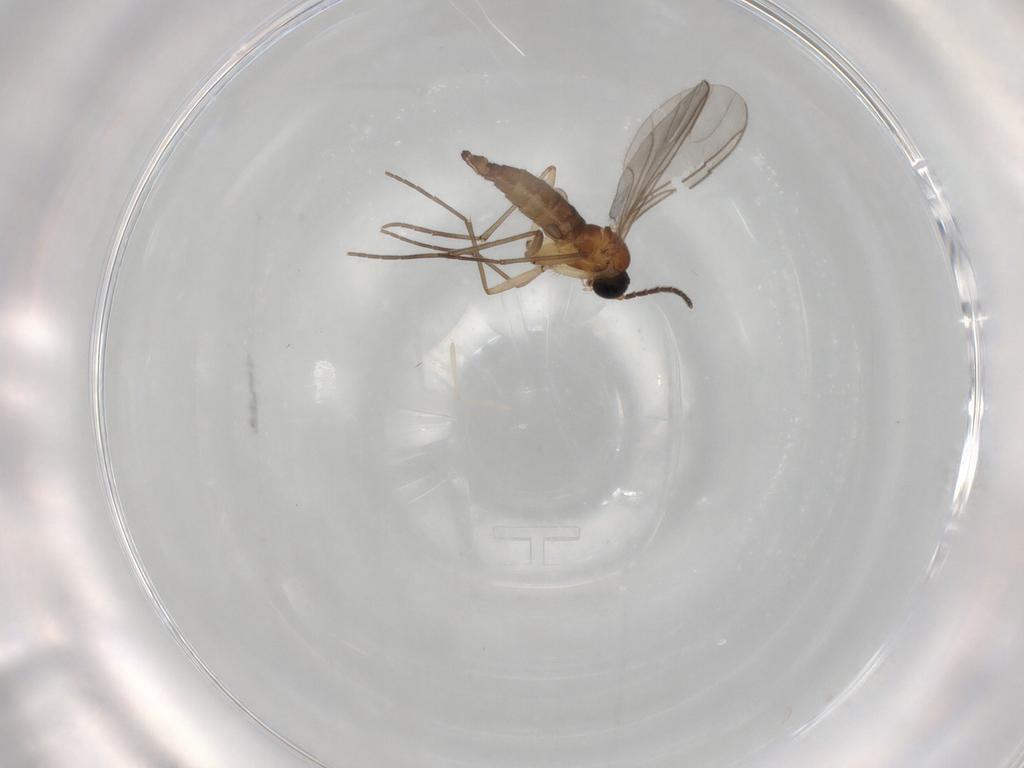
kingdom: Animalia
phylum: Arthropoda
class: Insecta
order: Diptera
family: Sciaridae
